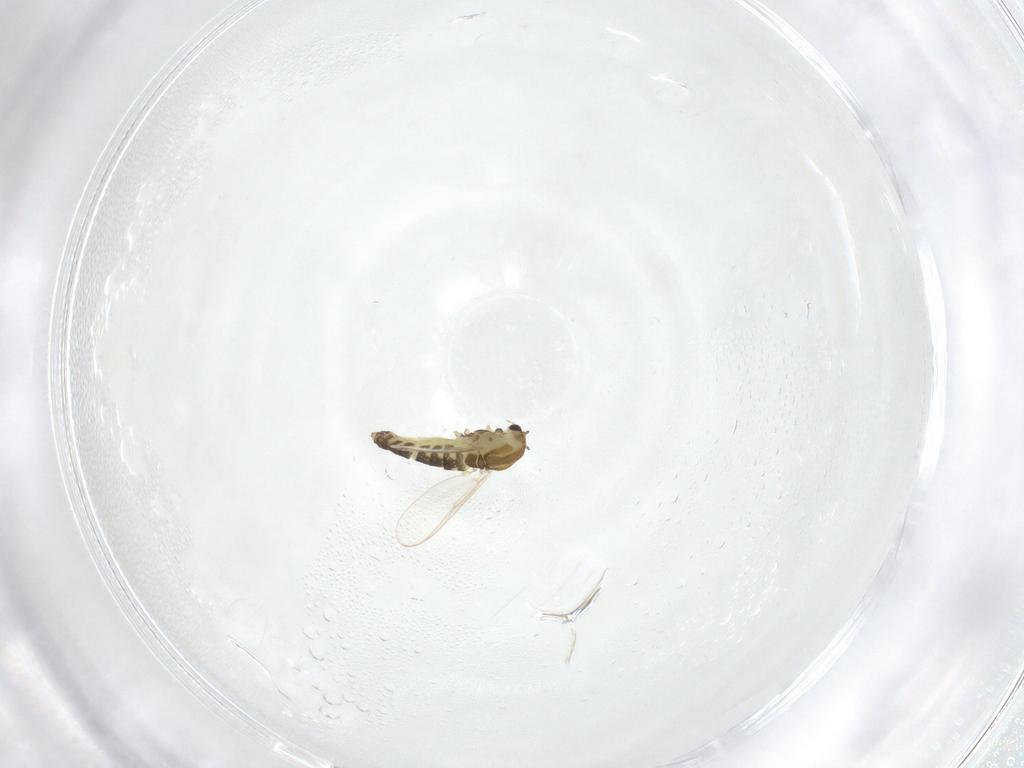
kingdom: Animalia
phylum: Arthropoda
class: Insecta
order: Diptera
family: Chironomidae
